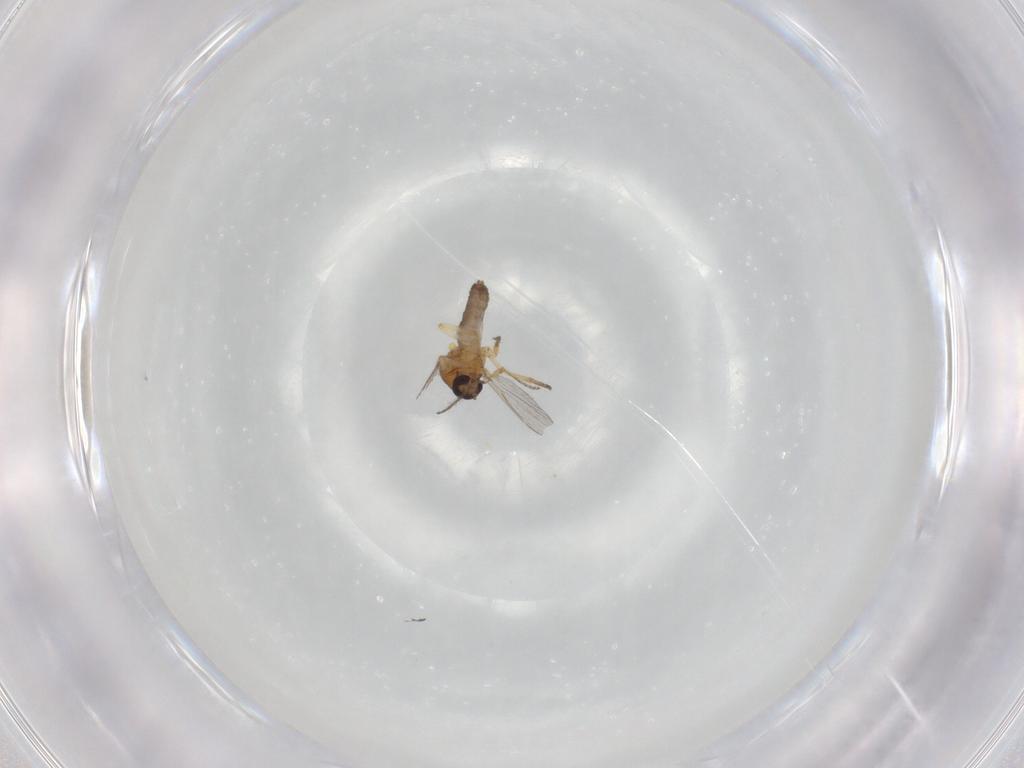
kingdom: Animalia
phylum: Arthropoda
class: Insecta
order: Diptera
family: Ceratopogonidae
